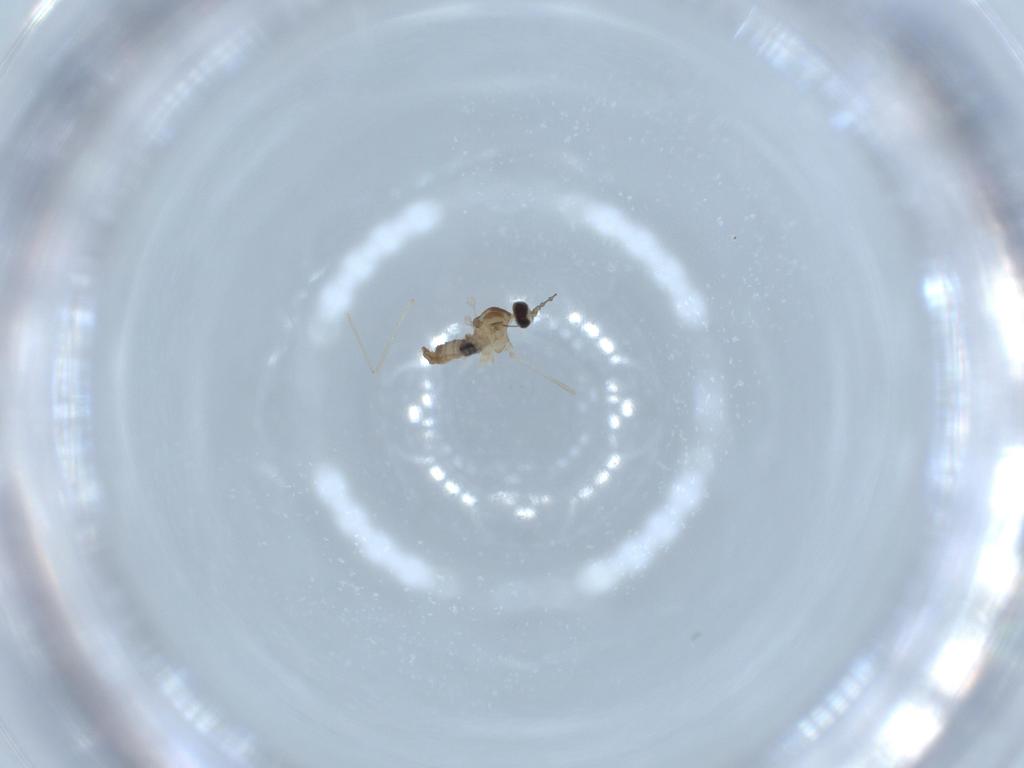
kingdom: Animalia
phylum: Arthropoda
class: Insecta
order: Diptera
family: Cecidomyiidae
